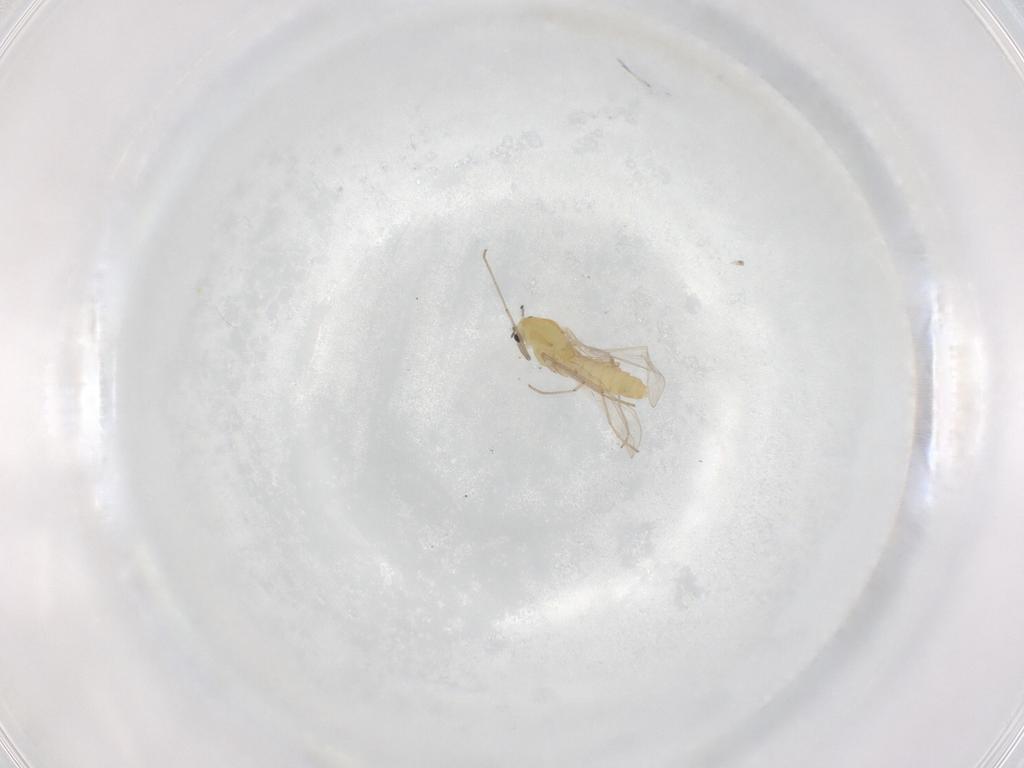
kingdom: Animalia
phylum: Arthropoda
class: Insecta
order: Diptera
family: Chironomidae
